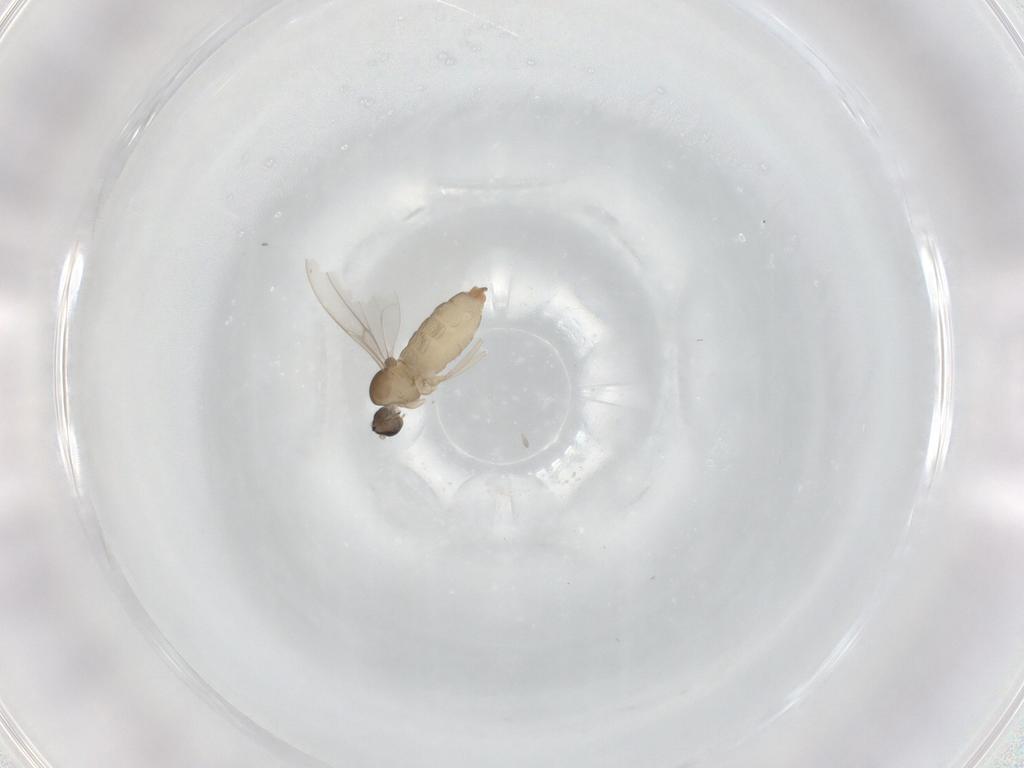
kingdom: Animalia
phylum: Arthropoda
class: Insecta
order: Diptera
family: Cecidomyiidae
